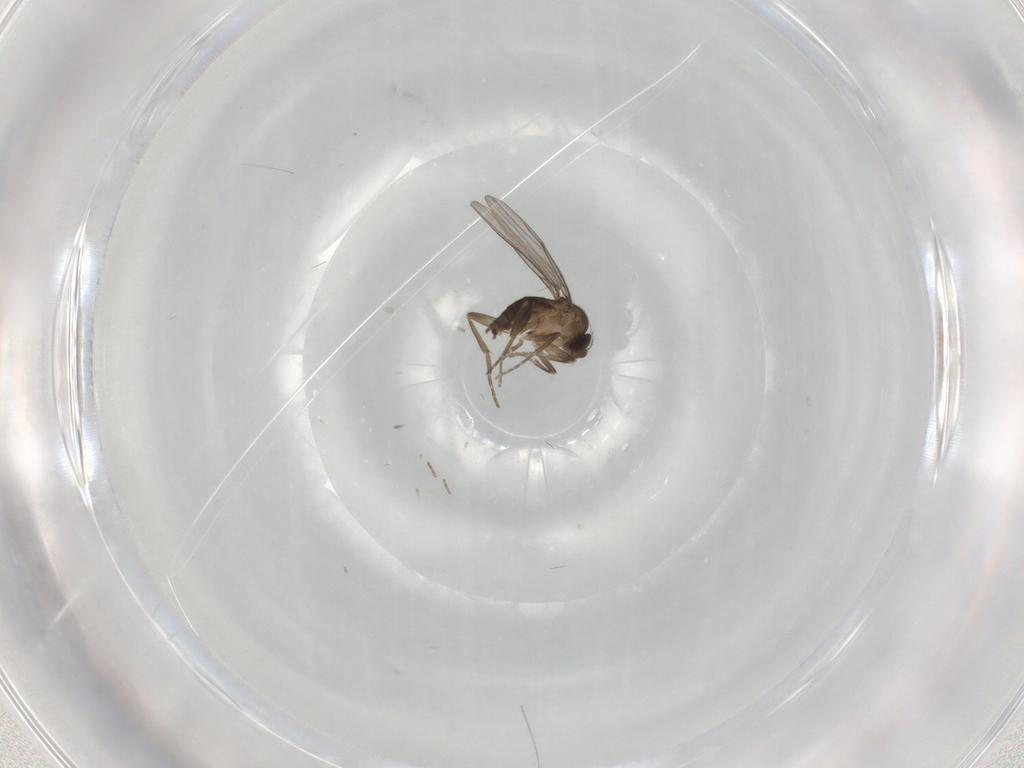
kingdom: Animalia
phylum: Arthropoda
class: Insecta
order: Diptera
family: Phoridae
